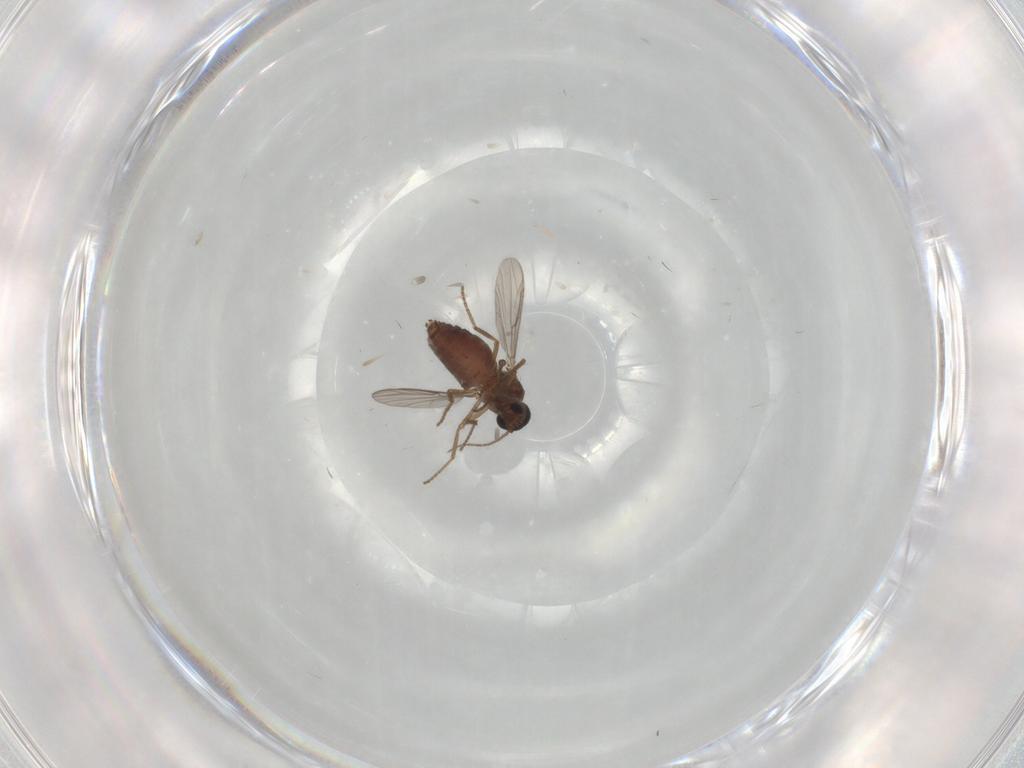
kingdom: Animalia
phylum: Arthropoda
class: Insecta
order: Diptera
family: Ceratopogonidae
